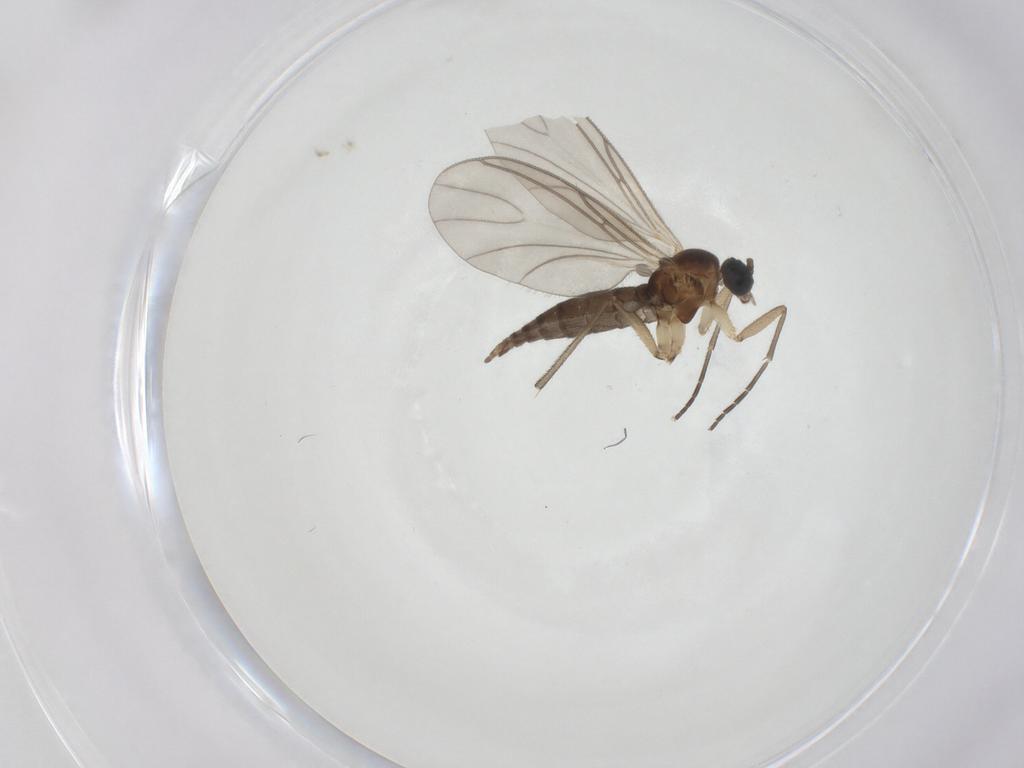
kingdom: Animalia
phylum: Arthropoda
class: Insecta
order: Diptera
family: Sciaridae
